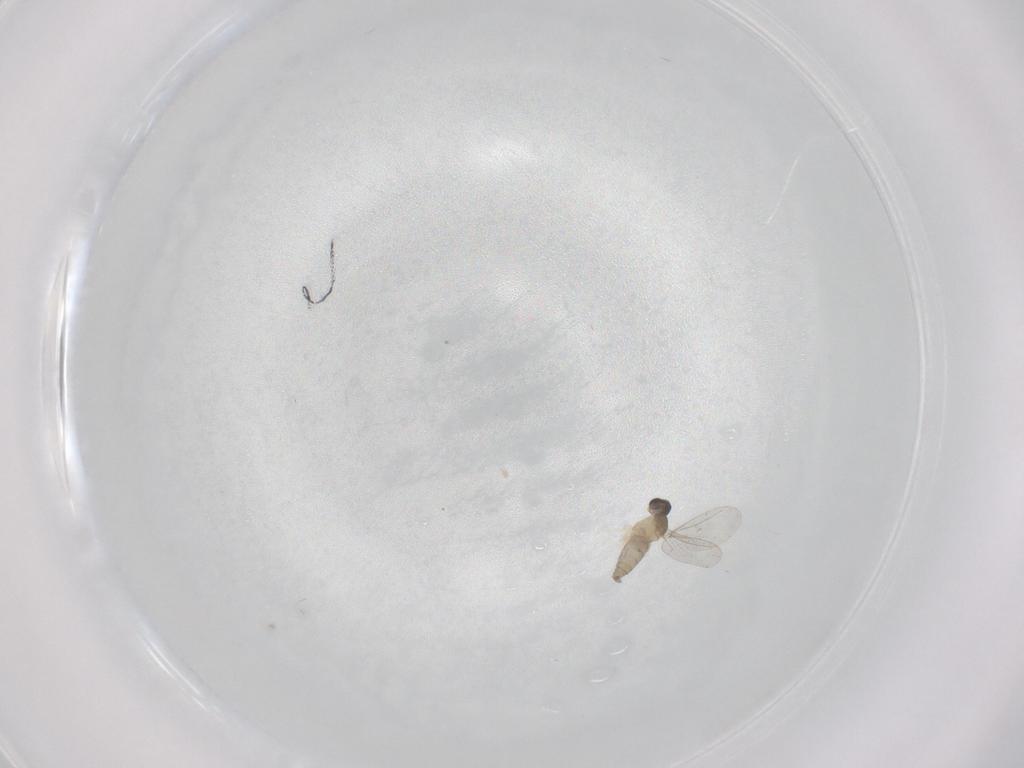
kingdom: Animalia
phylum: Arthropoda
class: Insecta
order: Diptera
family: Cecidomyiidae
